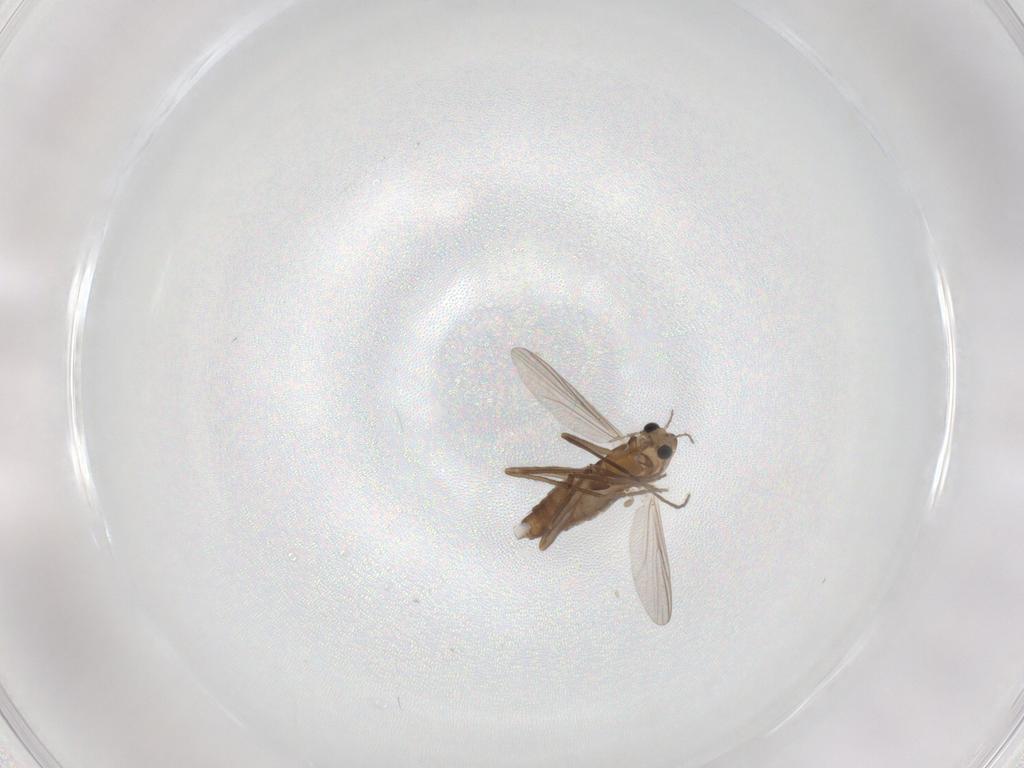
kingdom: Animalia
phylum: Arthropoda
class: Insecta
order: Diptera
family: Chironomidae
